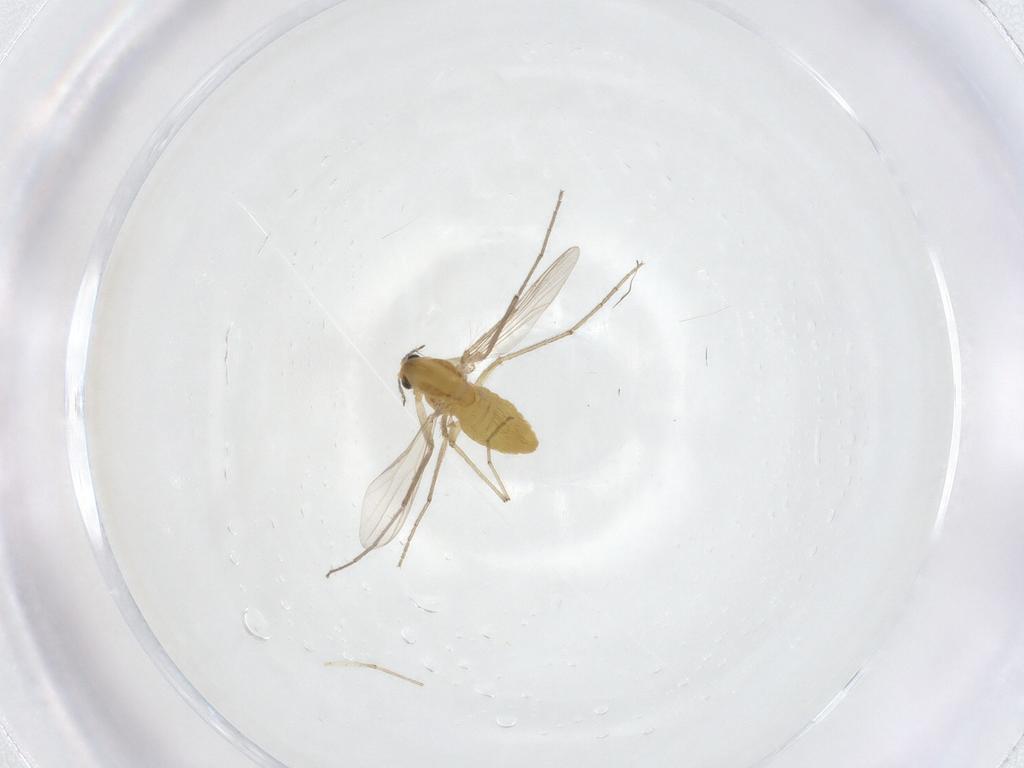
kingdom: Animalia
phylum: Arthropoda
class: Insecta
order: Diptera
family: Chironomidae
